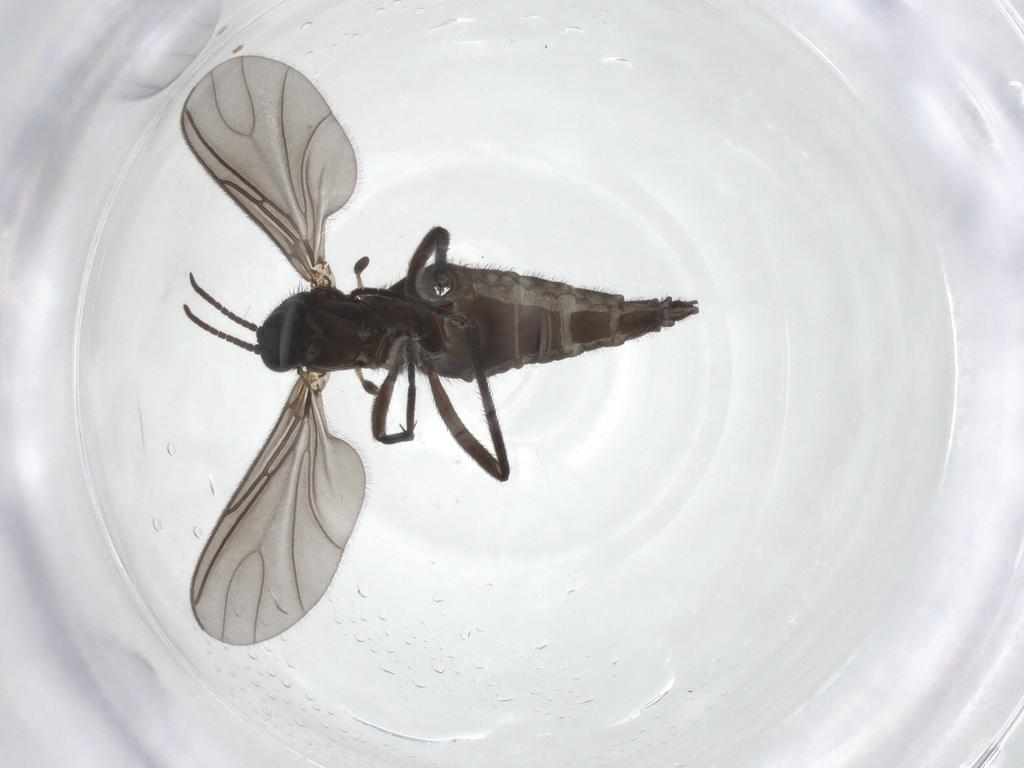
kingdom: Animalia
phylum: Arthropoda
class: Insecta
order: Diptera
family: Sciaridae
